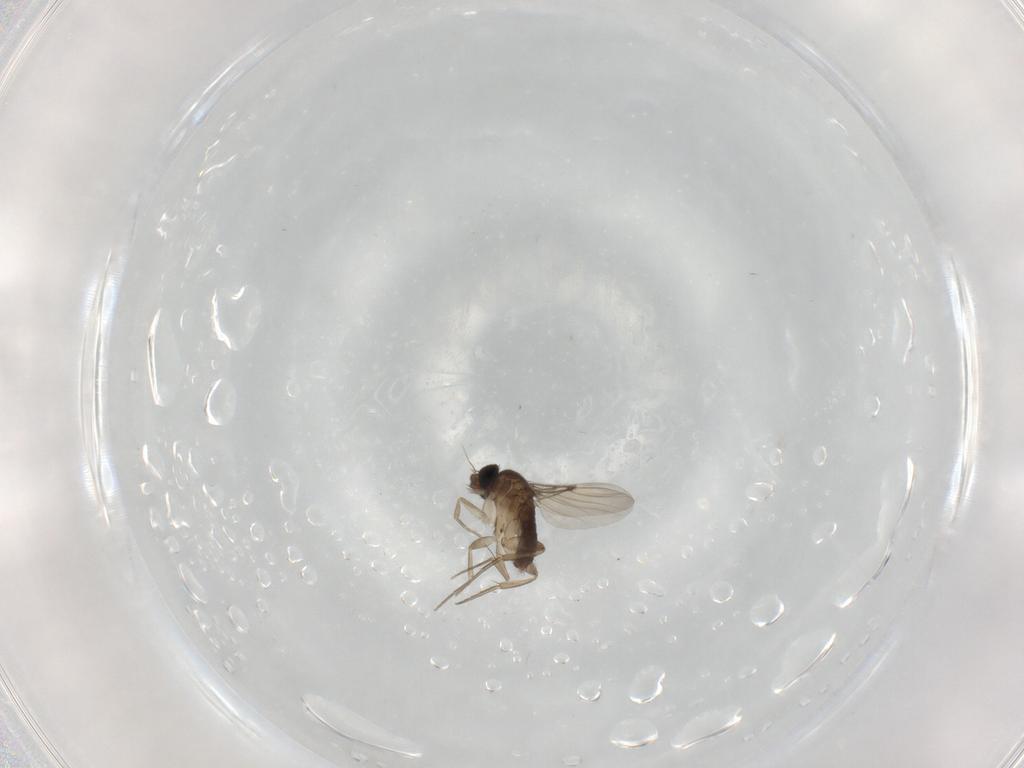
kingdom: Animalia
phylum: Arthropoda
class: Insecta
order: Diptera
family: Phoridae
